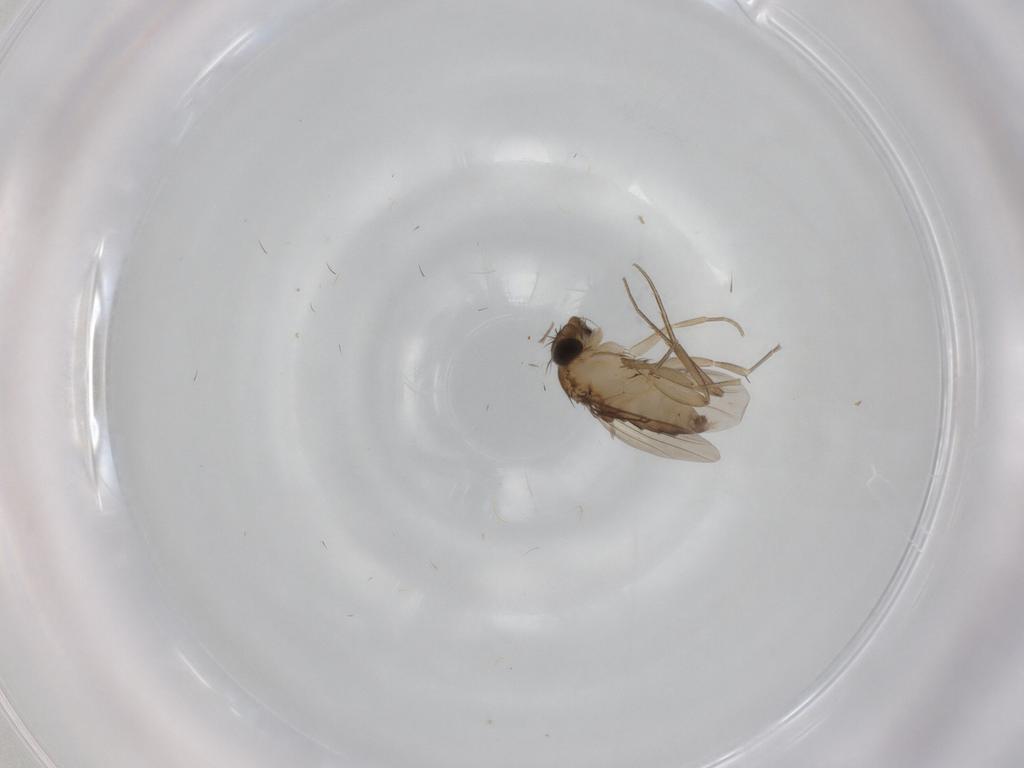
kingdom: Animalia
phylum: Arthropoda
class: Insecta
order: Diptera
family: Phoridae
